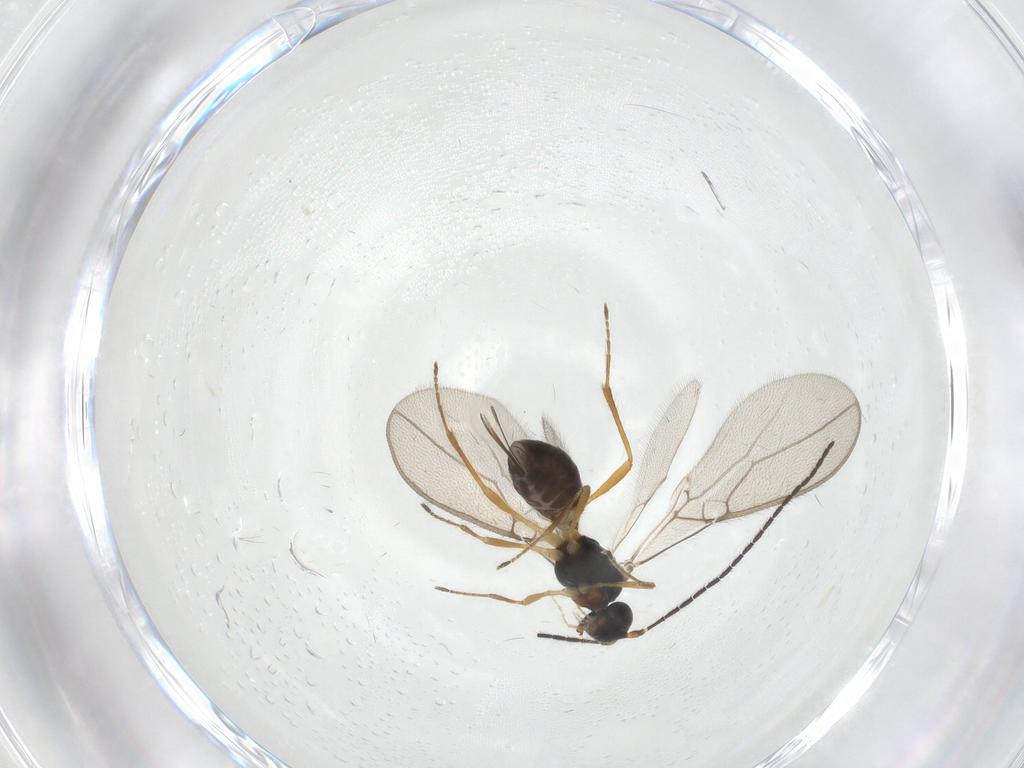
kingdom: Animalia
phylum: Arthropoda
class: Insecta
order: Hymenoptera
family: Braconidae
